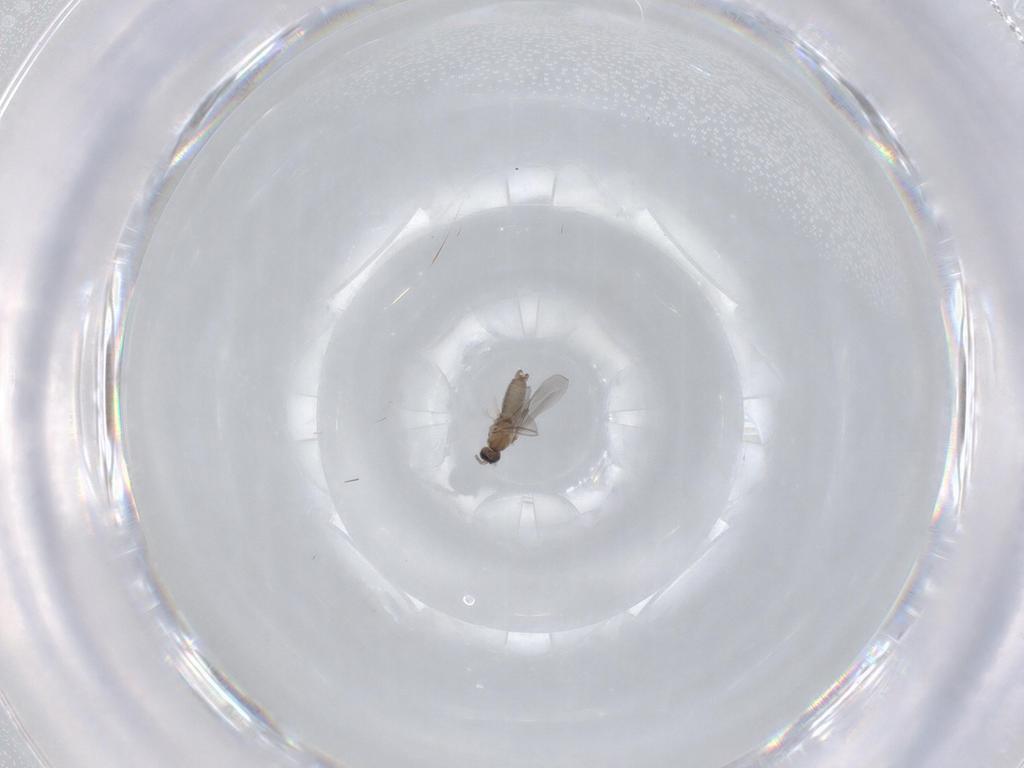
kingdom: Animalia
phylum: Arthropoda
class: Insecta
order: Diptera
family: Cecidomyiidae
